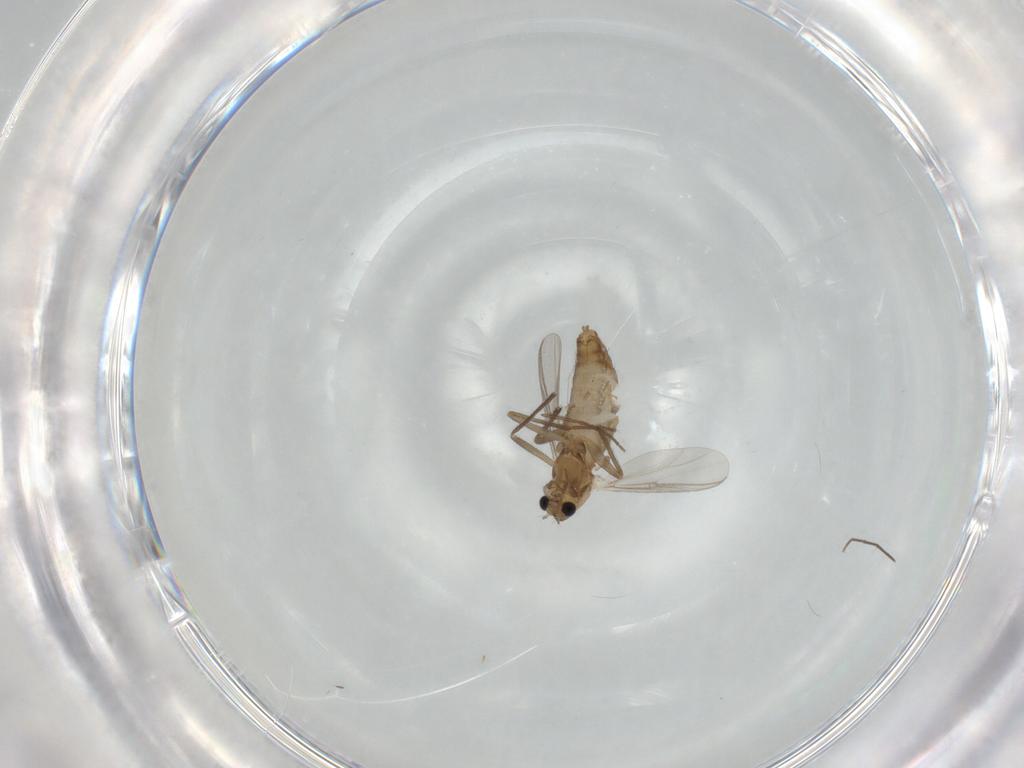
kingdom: Animalia
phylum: Arthropoda
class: Insecta
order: Diptera
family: Chironomidae
